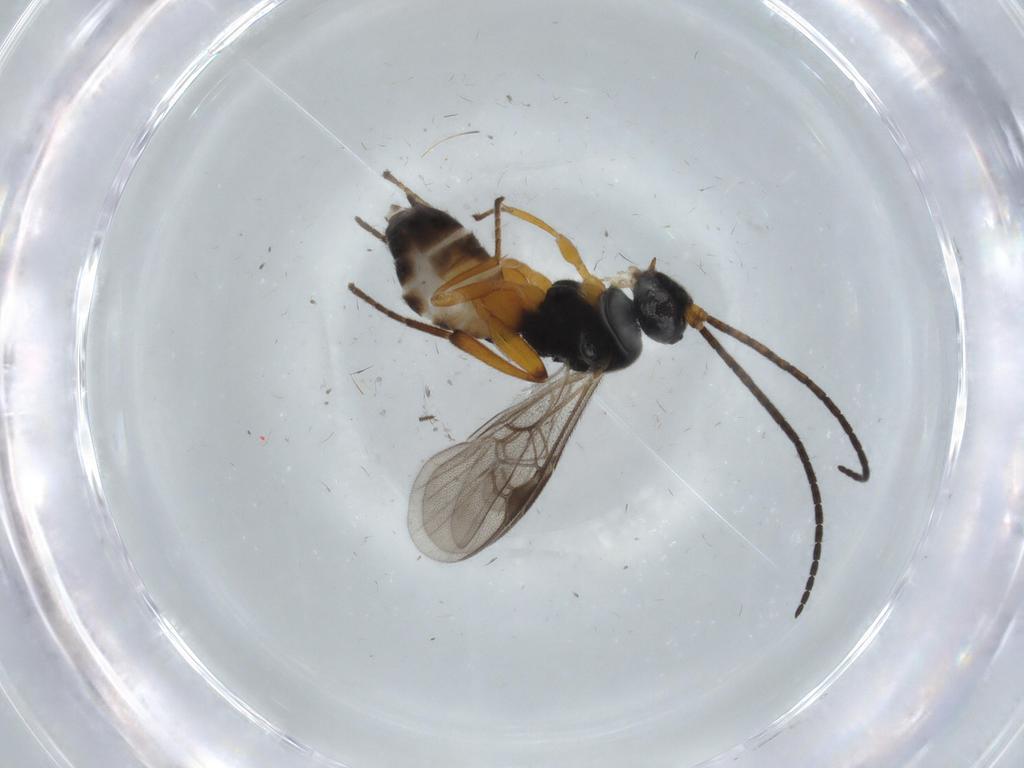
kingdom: Animalia
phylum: Arthropoda
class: Insecta
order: Hymenoptera
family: Braconidae
